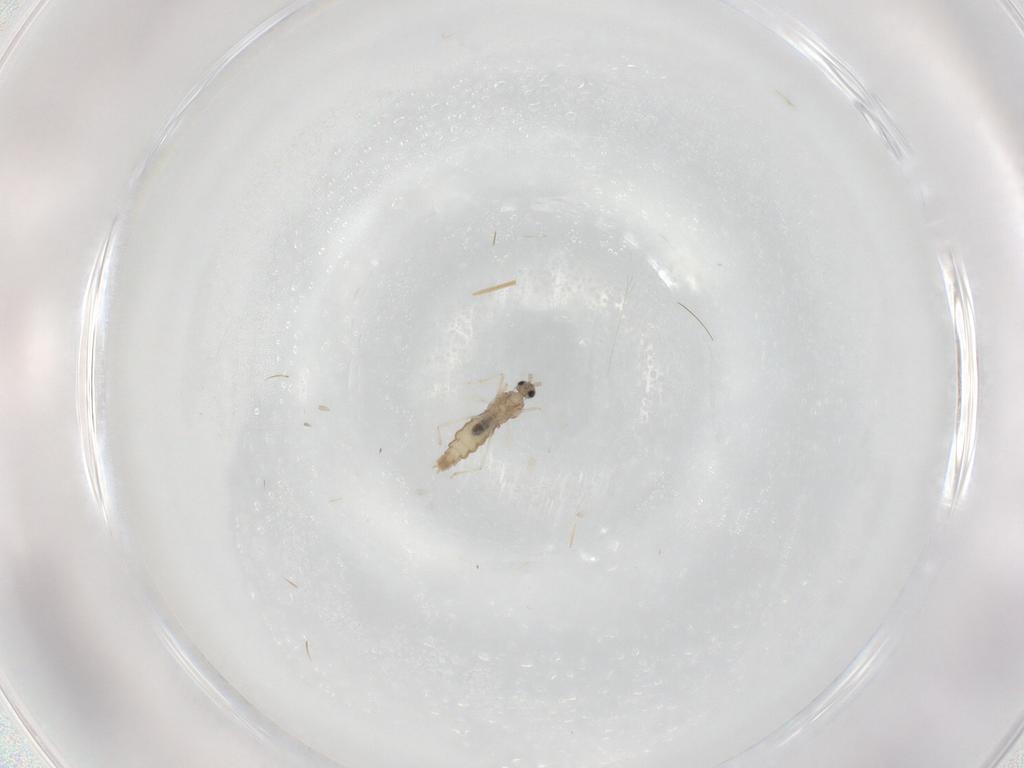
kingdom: Animalia
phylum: Arthropoda
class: Insecta
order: Diptera
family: Cecidomyiidae
